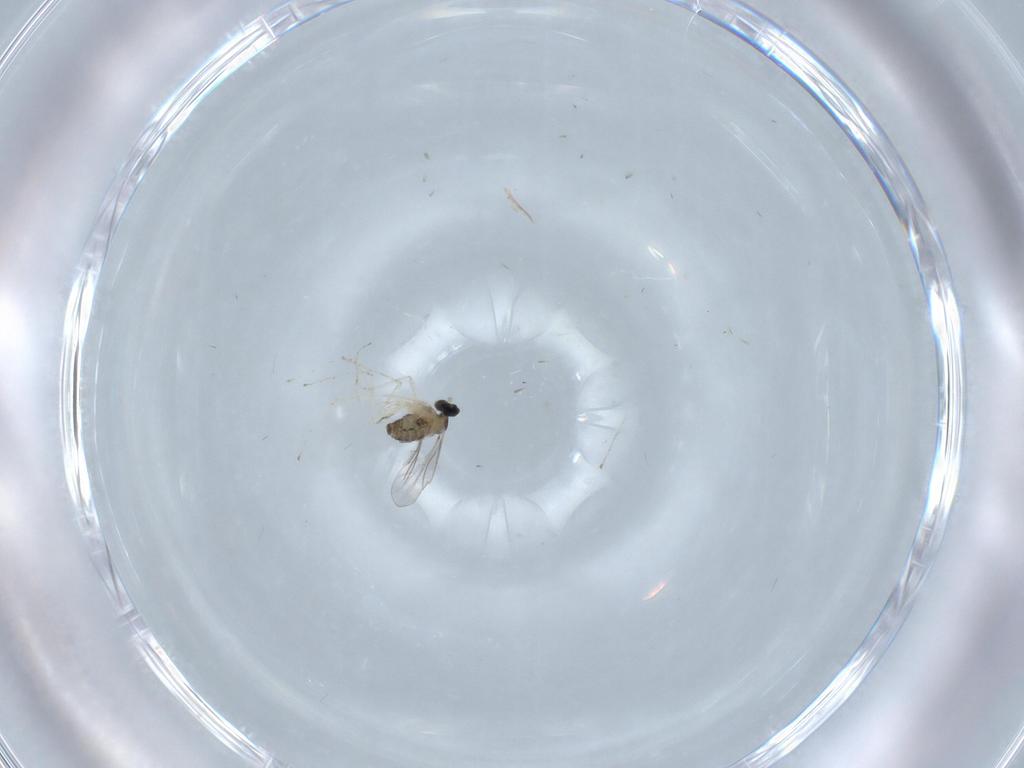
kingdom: Animalia
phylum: Arthropoda
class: Insecta
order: Diptera
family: Cecidomyiidae
